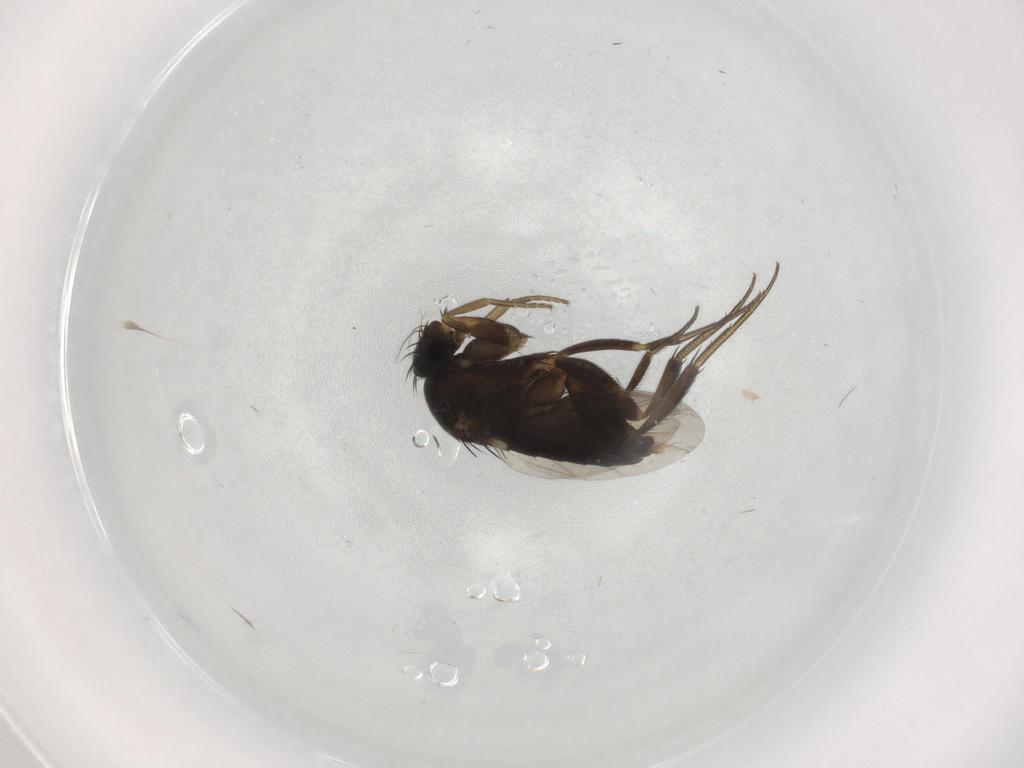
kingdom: Animalia
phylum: Arthropoda
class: Insecta
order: Diptera
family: Phoridae
